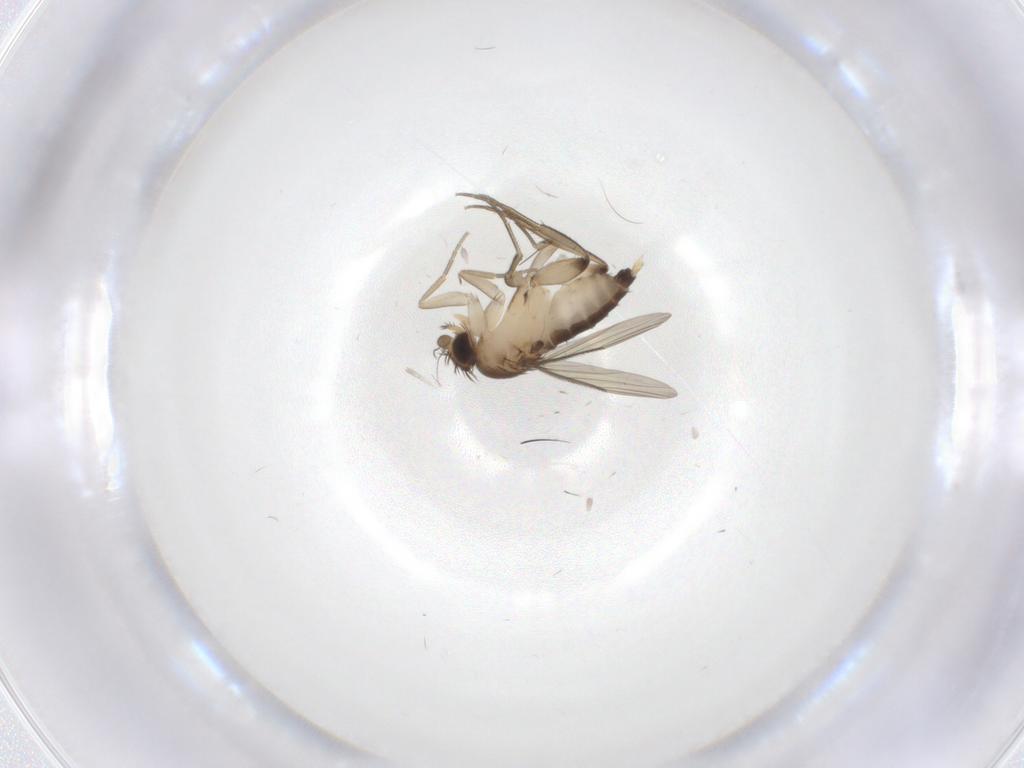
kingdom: Animalia
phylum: Arthropoda
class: Insecta
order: Diptera
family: Phoridae
